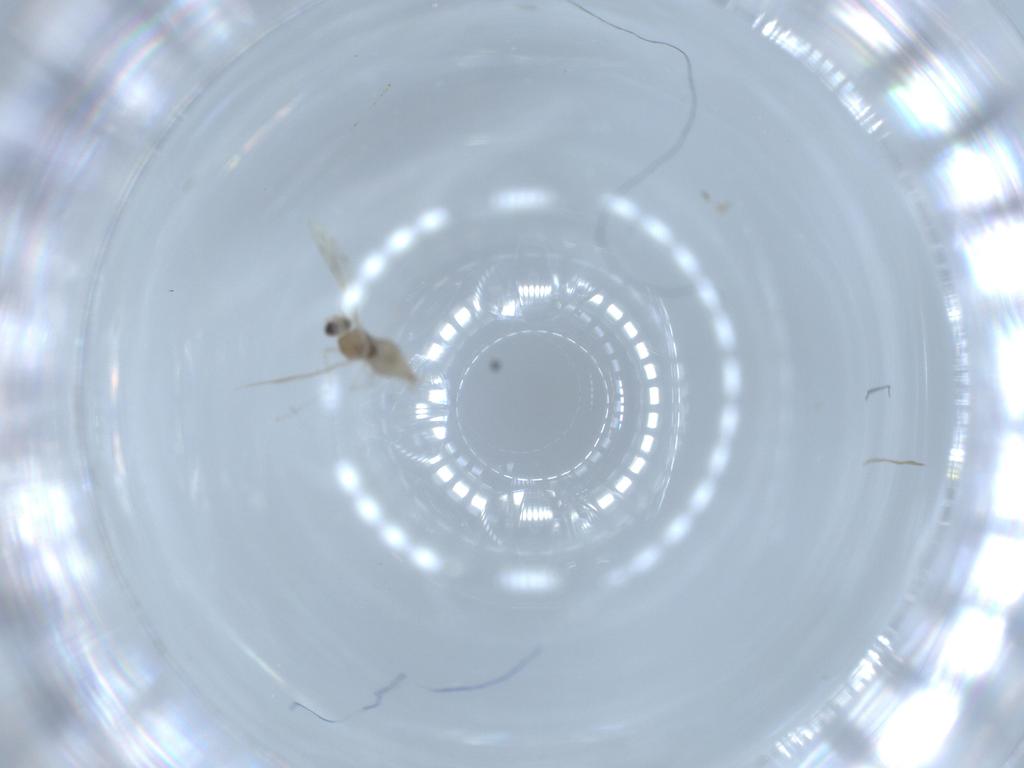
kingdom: Animalia
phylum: Arthropoda
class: Insecta
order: Diptera
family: Cecidomyiidae
